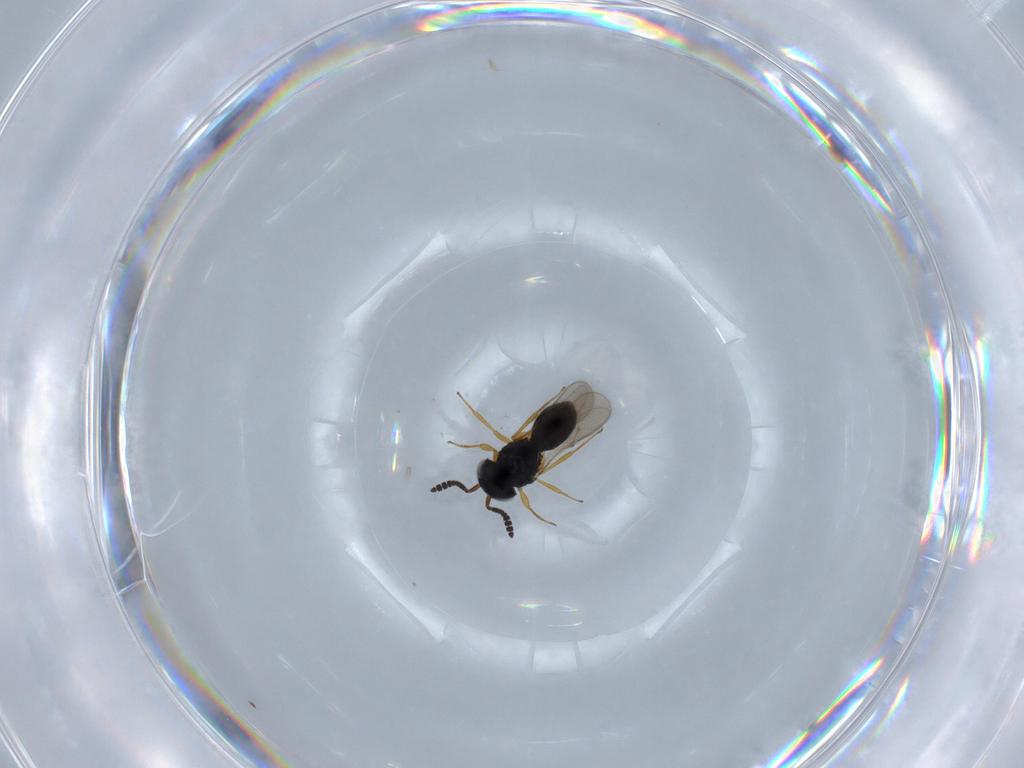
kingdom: Animalia
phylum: Arthropoda
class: Insecta
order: Hymenoptera
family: Scelionidae
